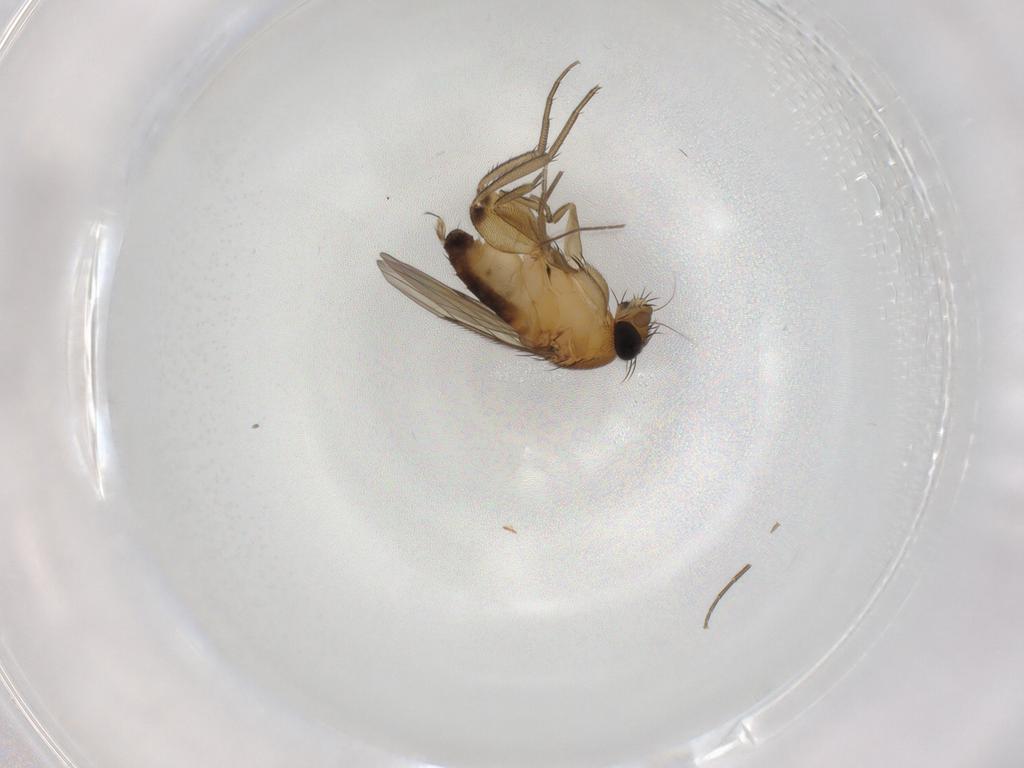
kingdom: Animalia
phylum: Arthropoda
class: Insecta
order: Diptera
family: Phoridae
